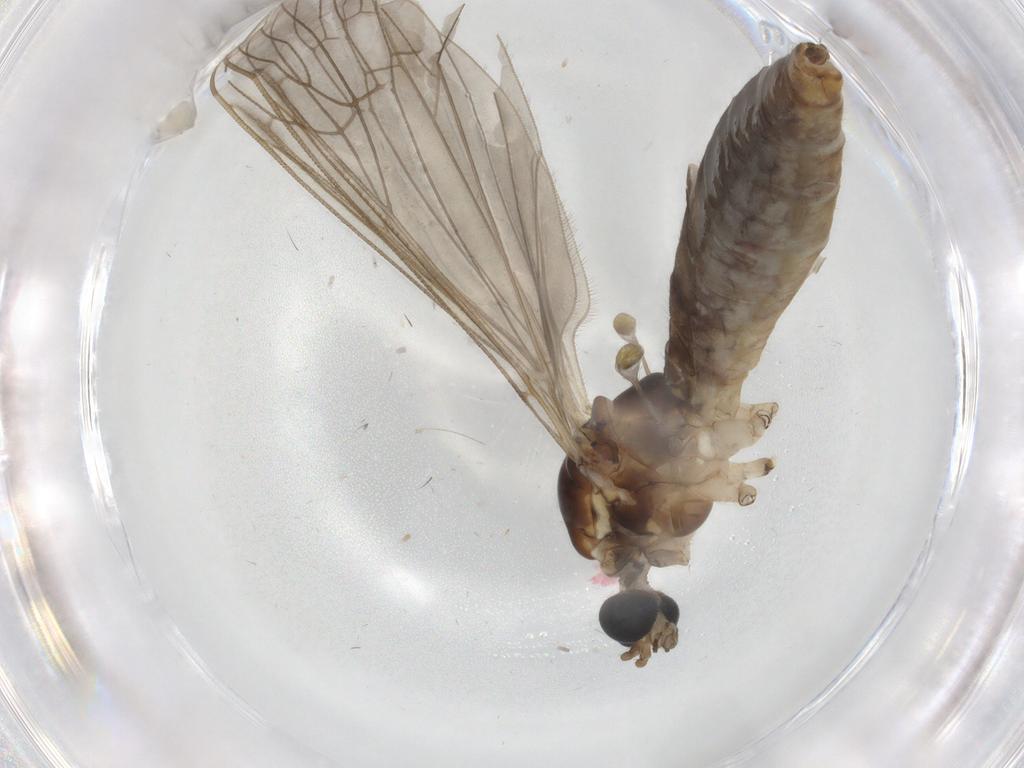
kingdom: Animalia
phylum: Arthropoda
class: Insecta
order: Diptera
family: Limoniidae
